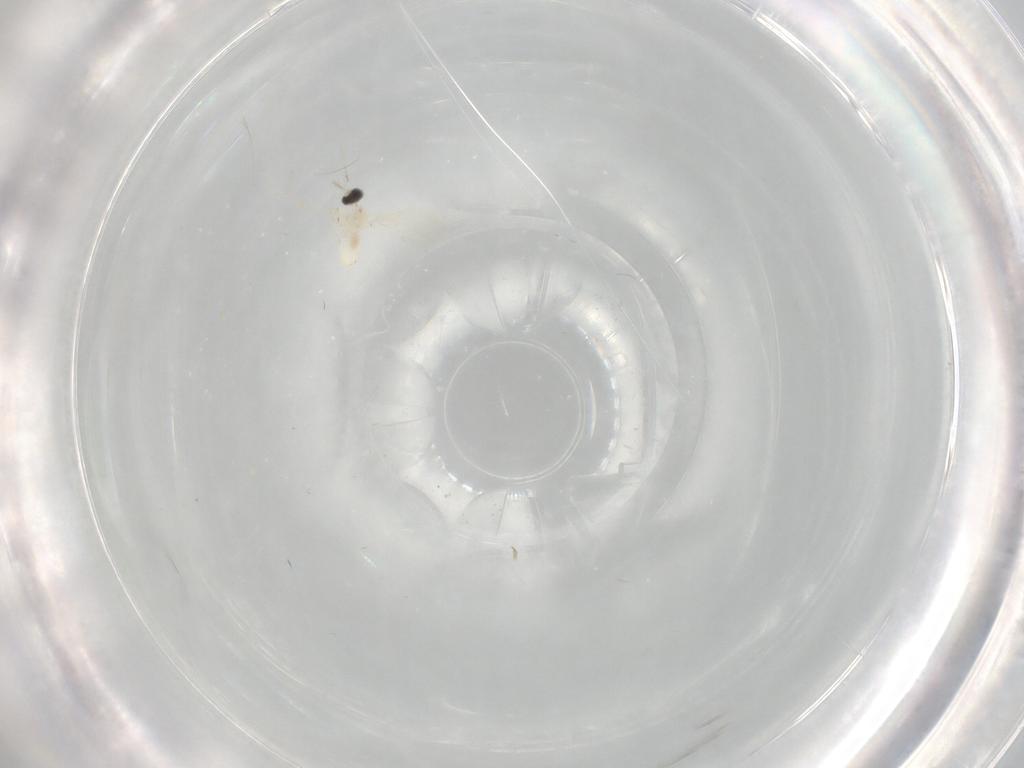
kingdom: Animalia
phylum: Arthropoda
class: Insecta
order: Diptera
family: Cecidomyiidae
